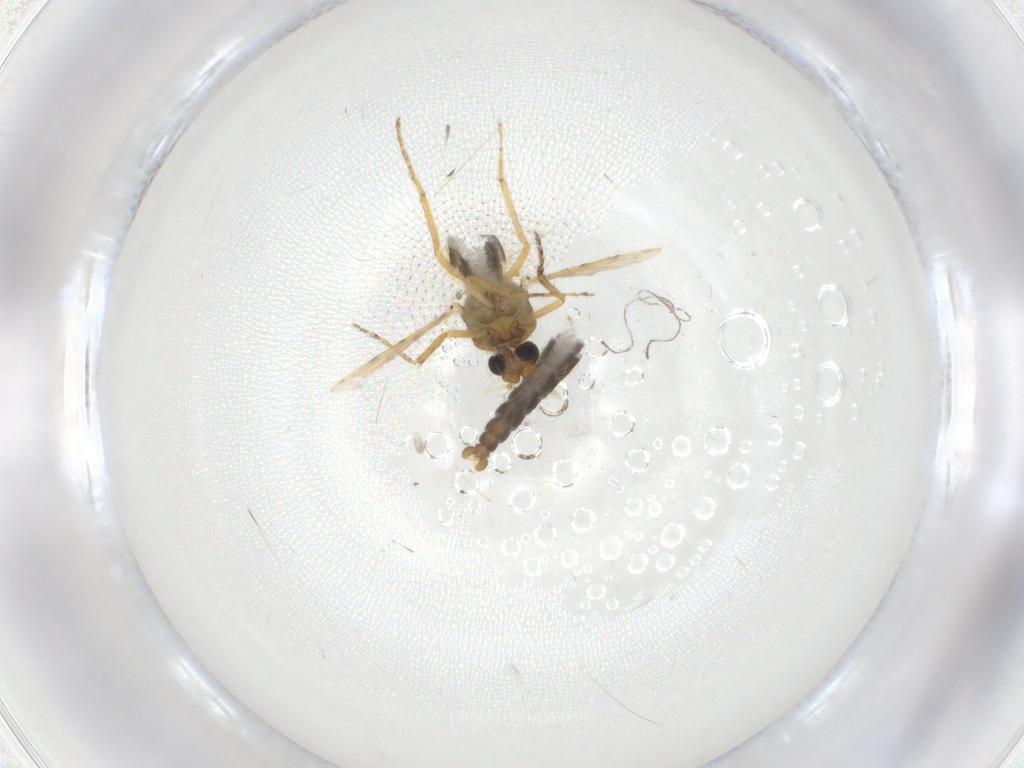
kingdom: Animalia
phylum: Arthropoda
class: Insecta
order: Diptera
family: Ceratopogonidae
